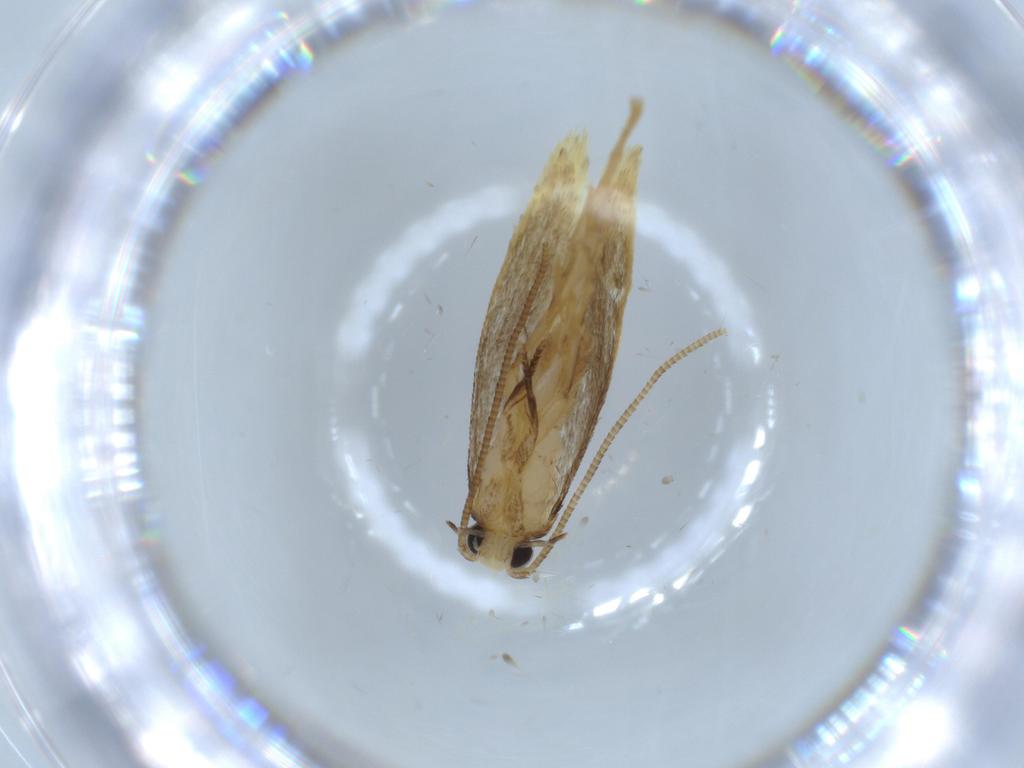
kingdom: Animalia
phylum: Arthropoda
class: Insecta
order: Lepidoptera
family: Tineidae
